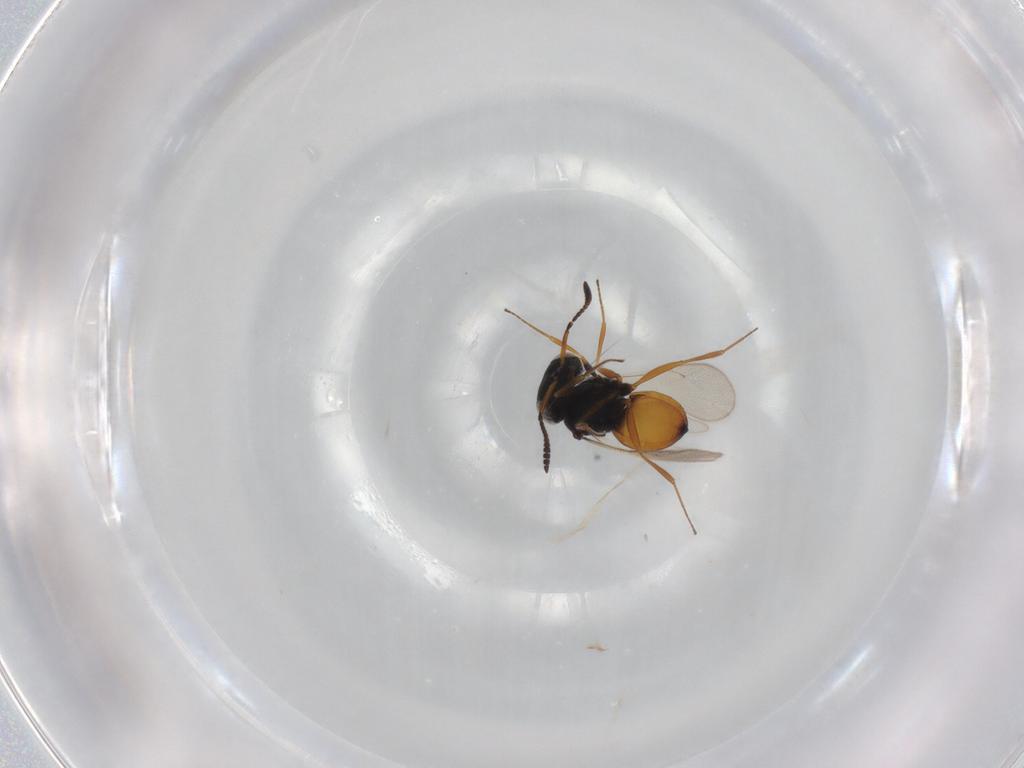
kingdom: Animalia
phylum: Arthropoda
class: Insecta
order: Hymenoptera
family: Scelionidae
